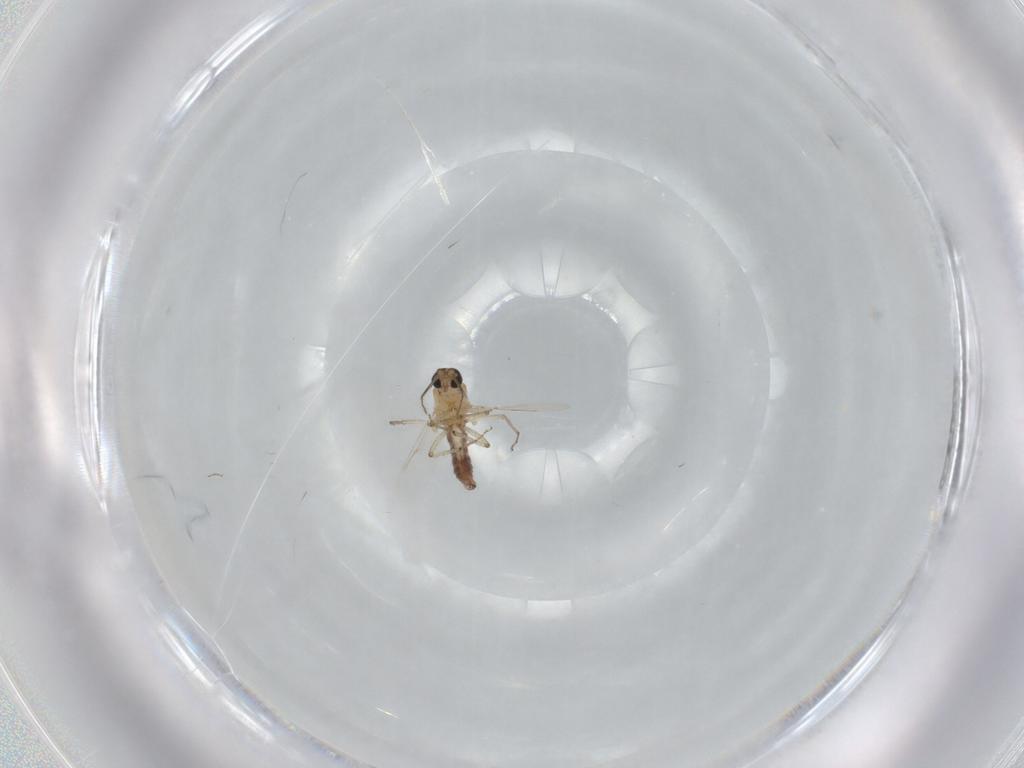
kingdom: Animalia
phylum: Arthropoda
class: Insecta
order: Diptera
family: Ceratopogonidae
